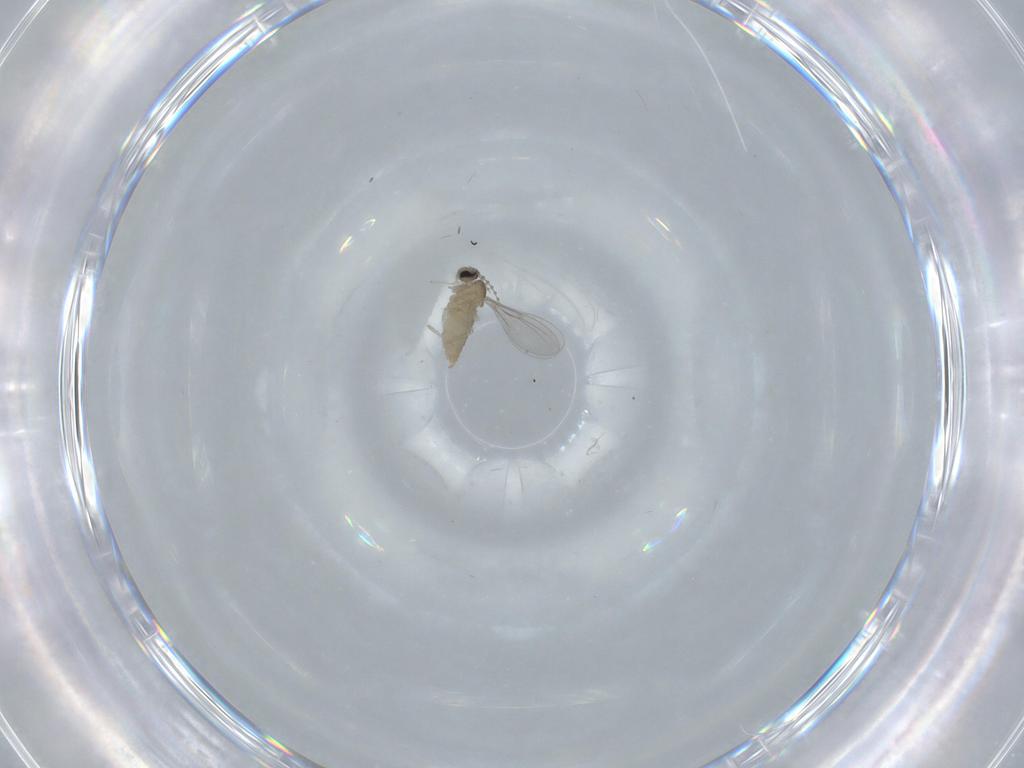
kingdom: Animalia
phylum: Arthropoda
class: Insecta
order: Diptera
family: Cecidomyiidae
